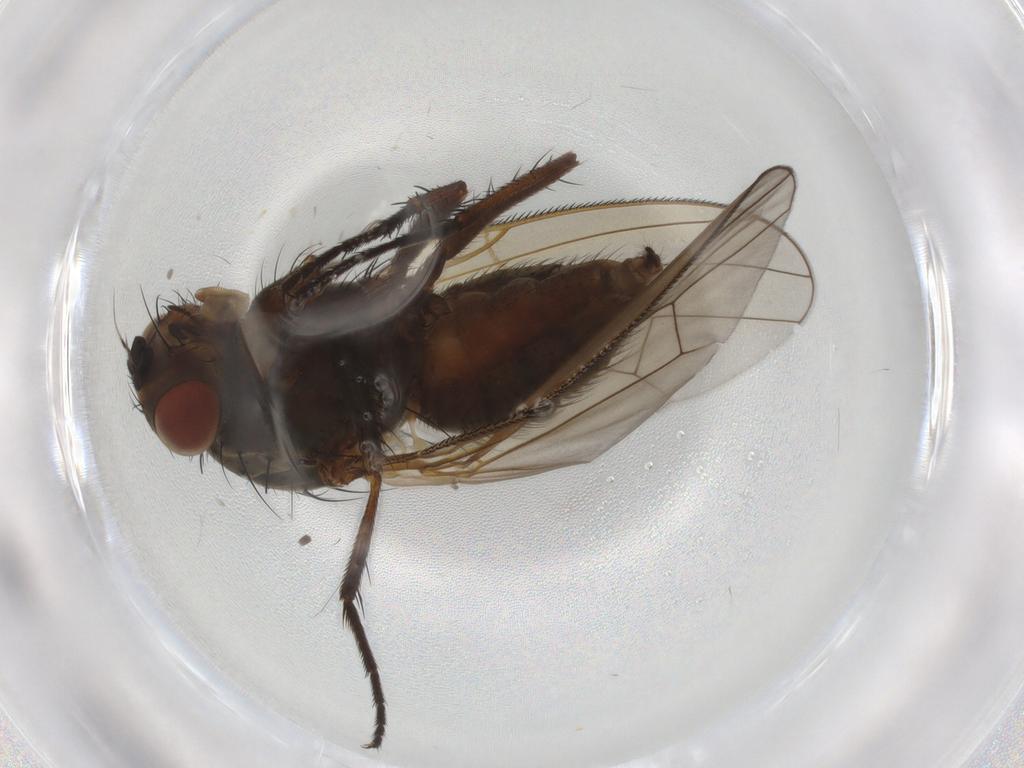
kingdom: Animalia
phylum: Arthropoda
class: Insecta
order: Diptera
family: Anthomyiidae
